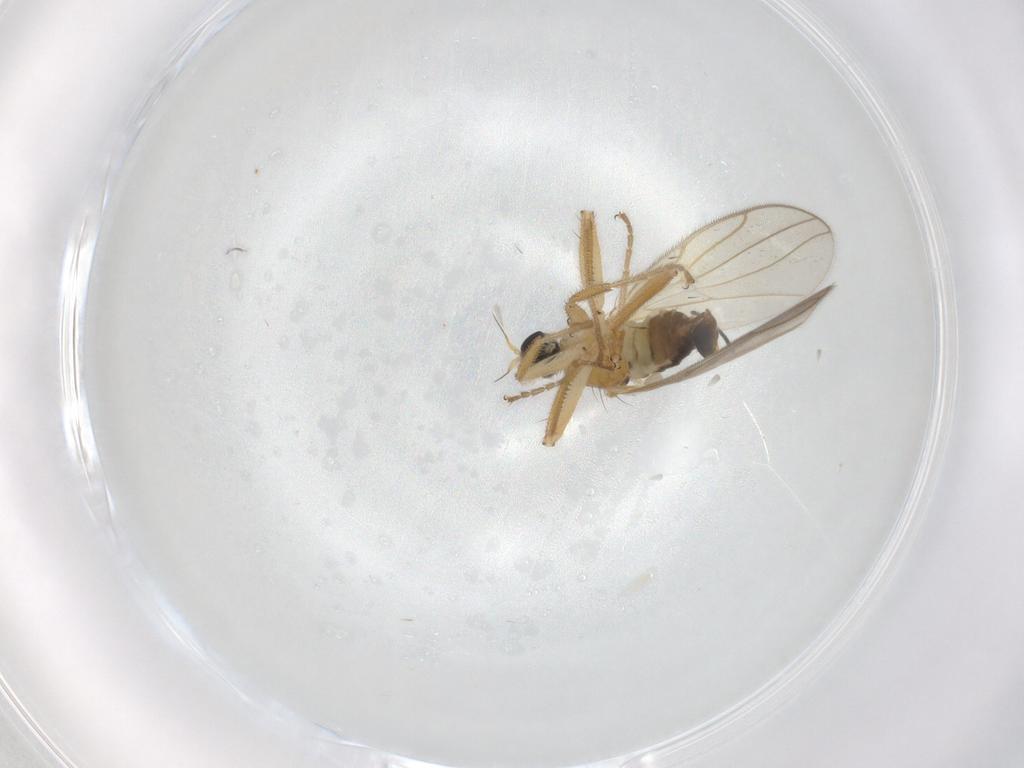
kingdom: Animalia
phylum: Arthropoda
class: Insecta
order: Diptera
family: Hybotidae
